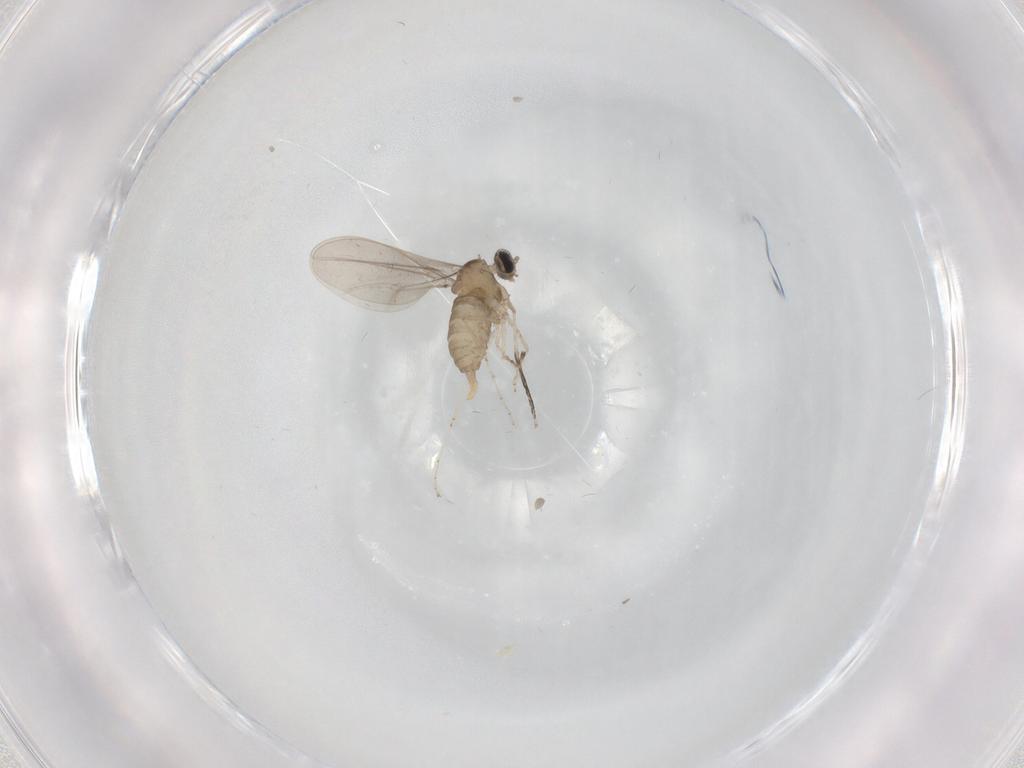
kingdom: Animalia
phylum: Arthropoda
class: Insecta
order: Diptera
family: Cecidomyiidae
